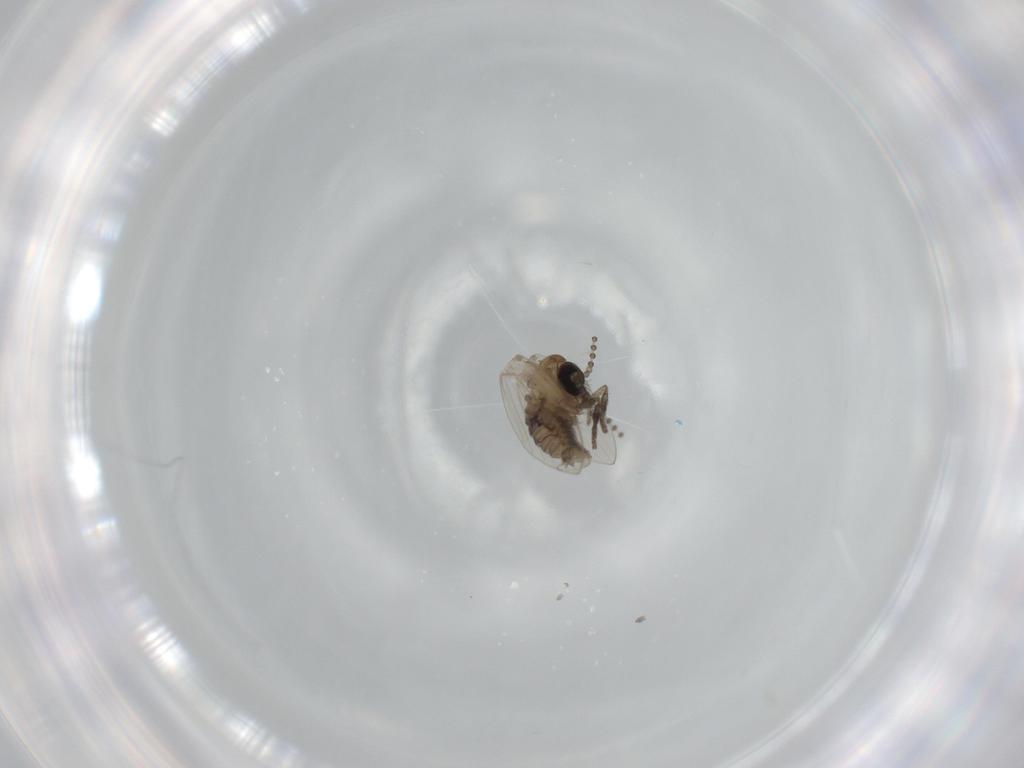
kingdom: Animalia
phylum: Arthropoda
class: Insecta
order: Diptera
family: Psychodidae
